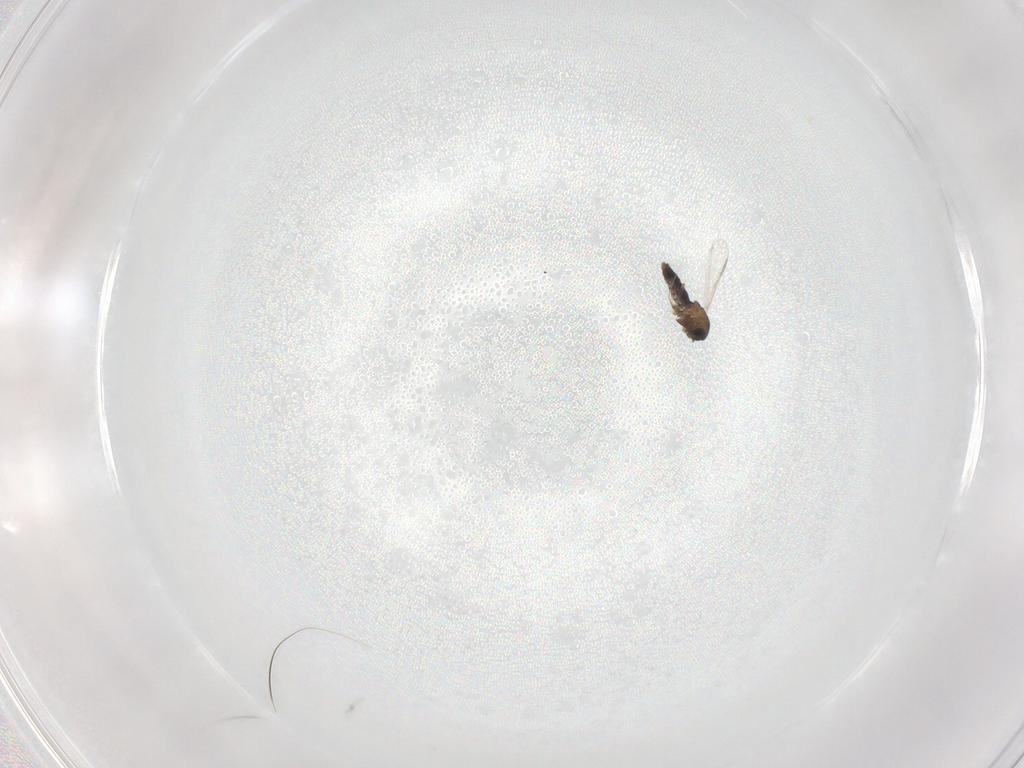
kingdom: Animalia
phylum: Arthropoda
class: Insecta
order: Diptera
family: Chironomidae
